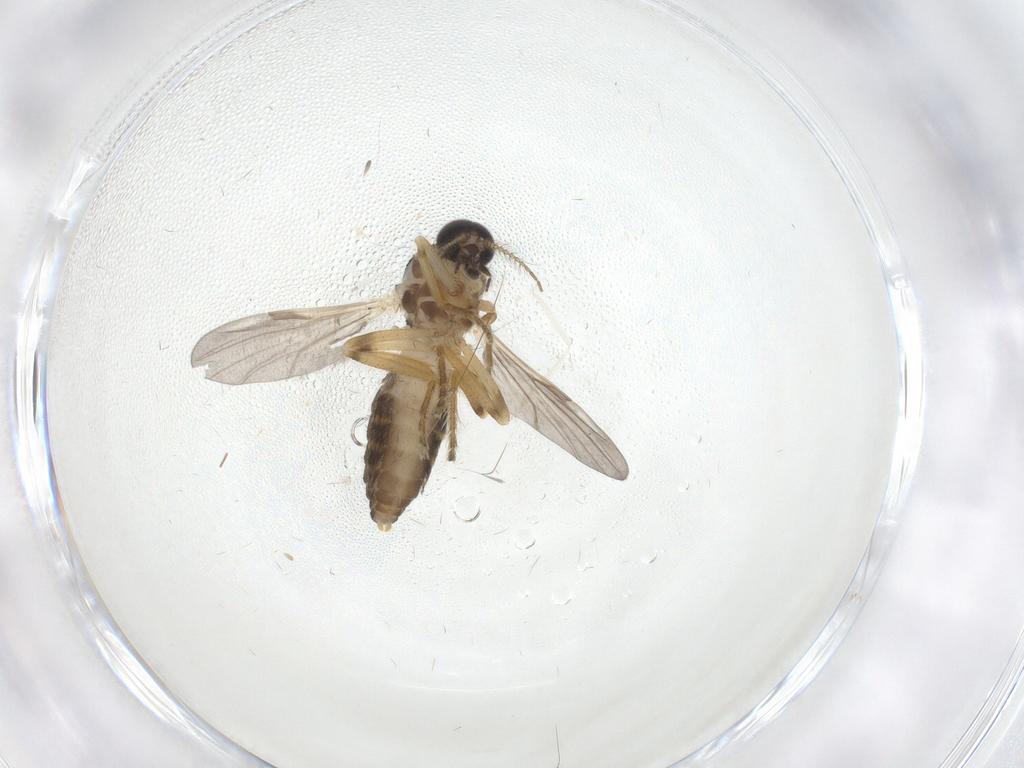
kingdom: Animalia
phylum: Arthropoda
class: Insecta
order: Diptera
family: Ceratopogonidae
